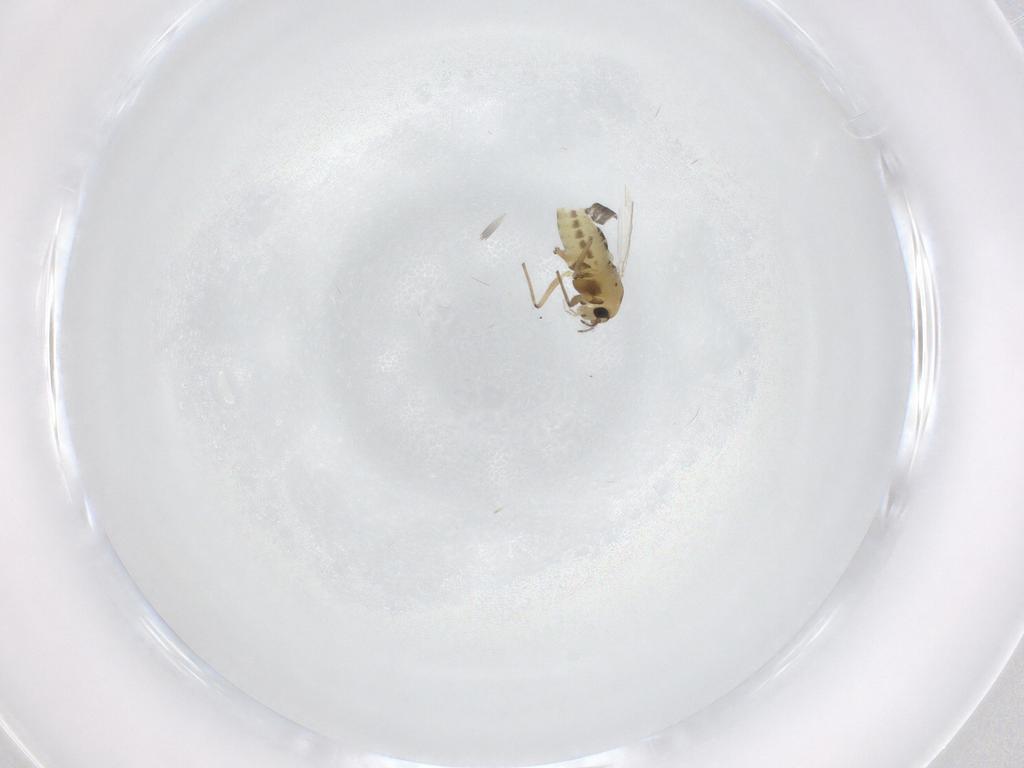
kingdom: Animalia
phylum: Arthropoda
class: Insecta
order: Diptera
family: Chironomidae
